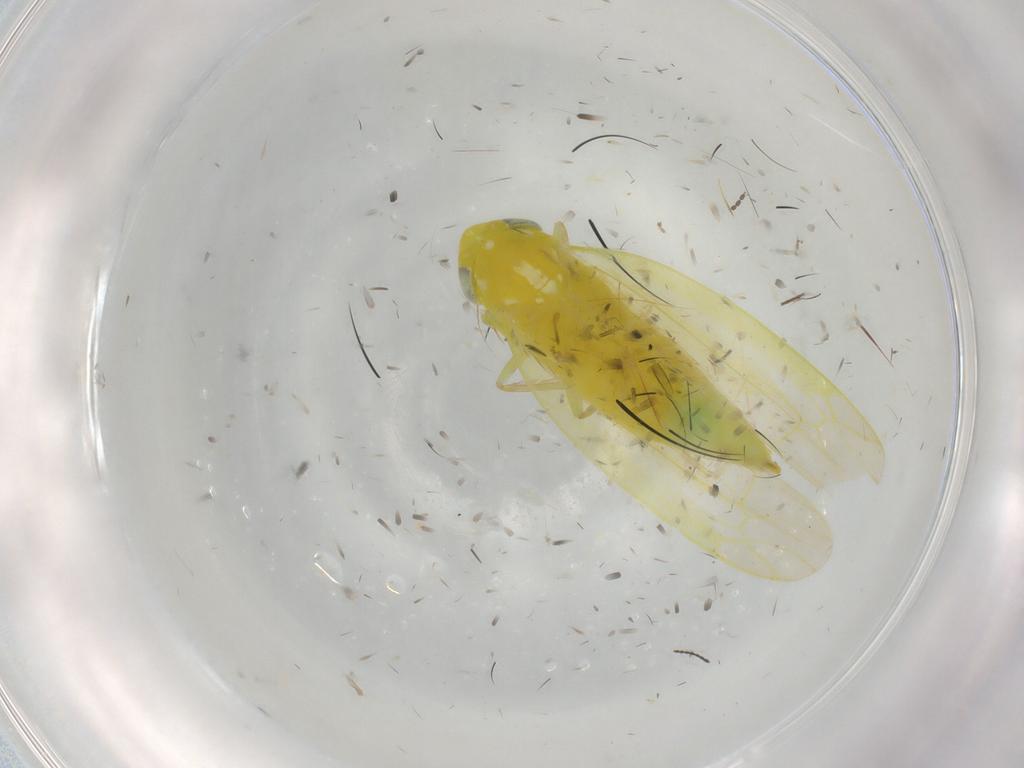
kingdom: Animalia
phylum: Arthropoda
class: Insecta
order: Hemiptera
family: Cicadellidae
